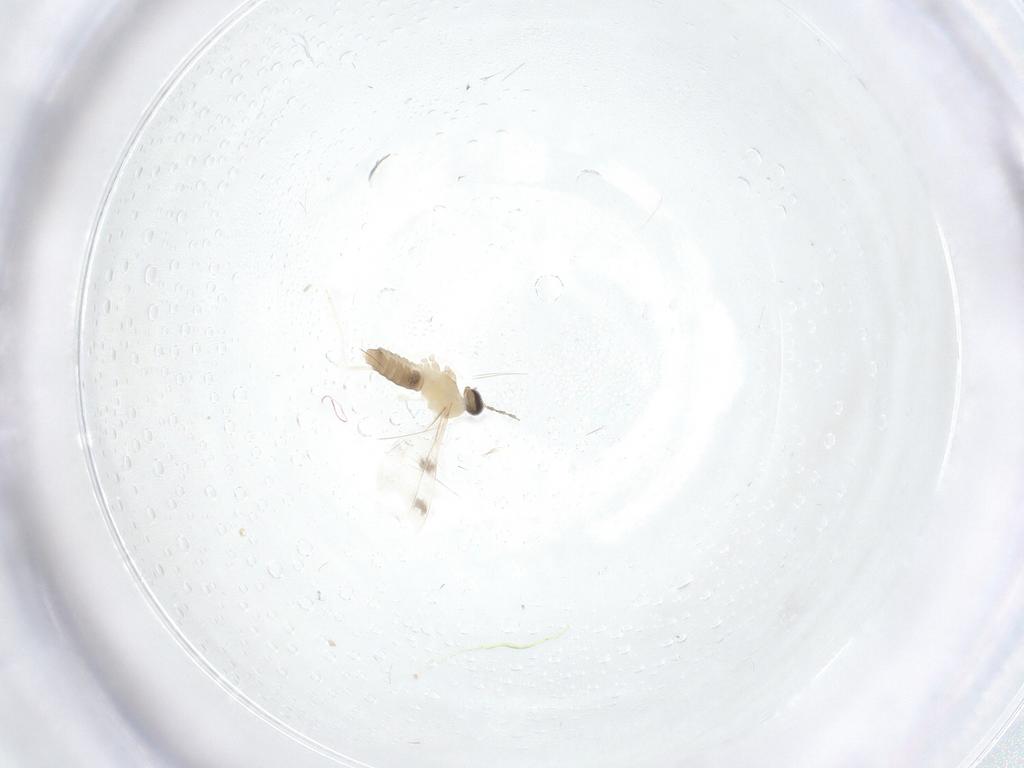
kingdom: Animalia
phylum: Arthropoda
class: Insecta
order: Diptera
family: Cecidomyiidae
